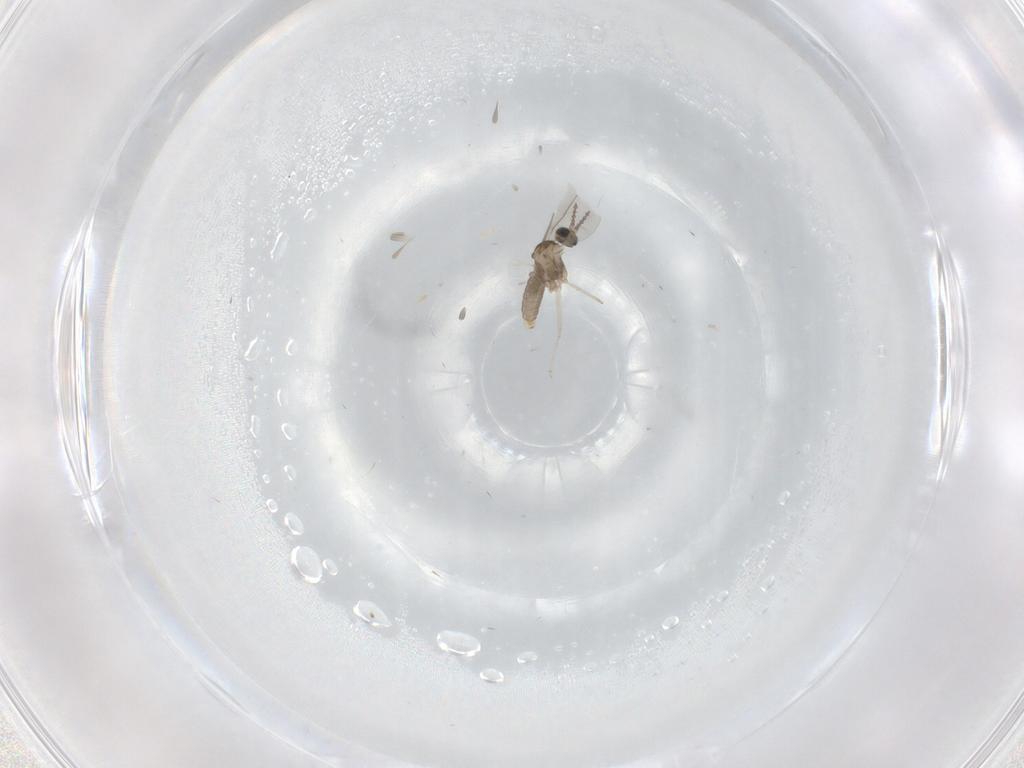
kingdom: Animalia
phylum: Arthropoda
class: Insecta
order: Diptera
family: Cecidomyiidae
